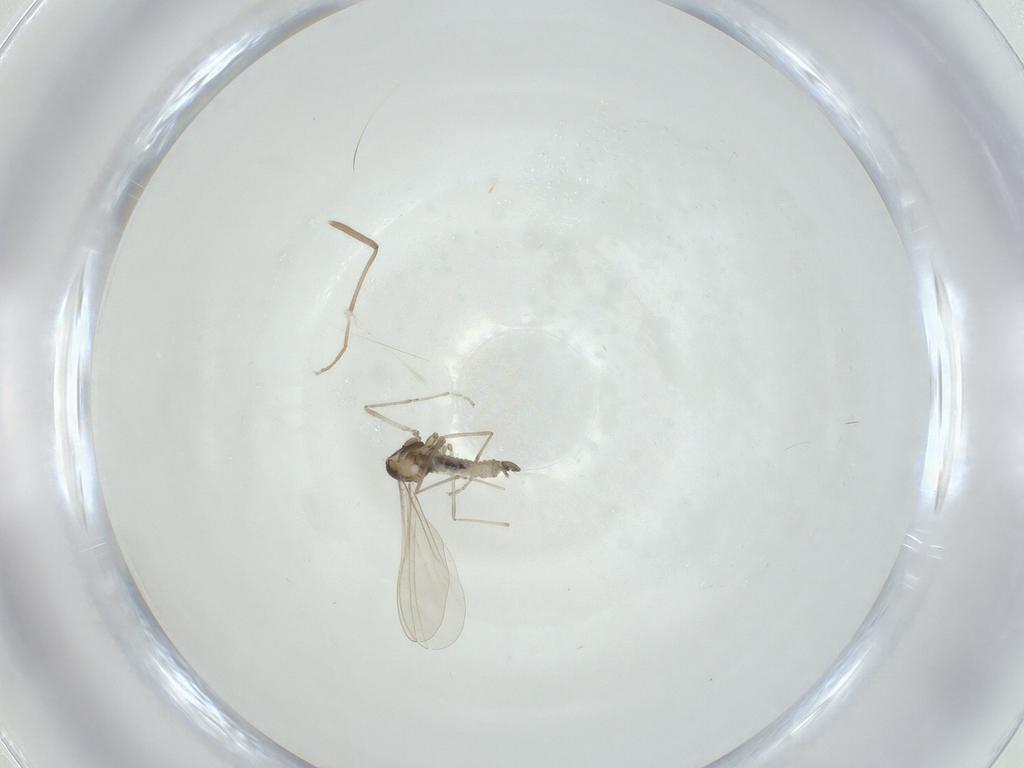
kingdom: Animalia
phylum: Arthropoda
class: Insecta
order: Diptera
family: Cecidomyiidae
